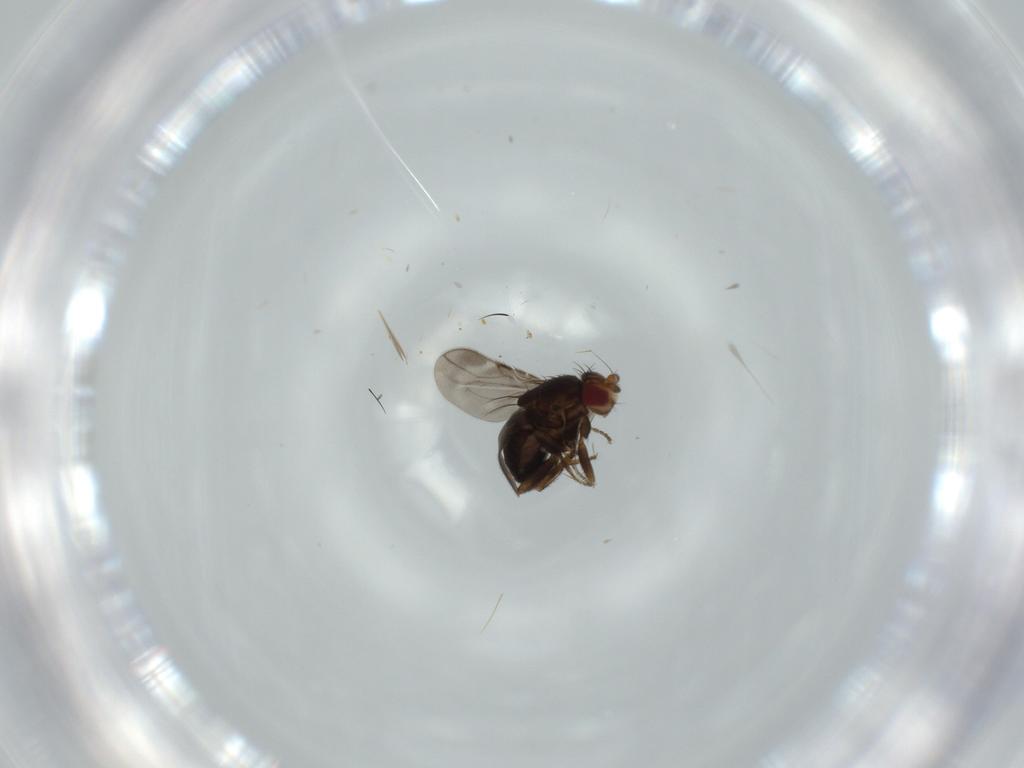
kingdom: Animalia
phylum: Arthropoda
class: Insecta
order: Diptera
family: Sphaeroceridae
